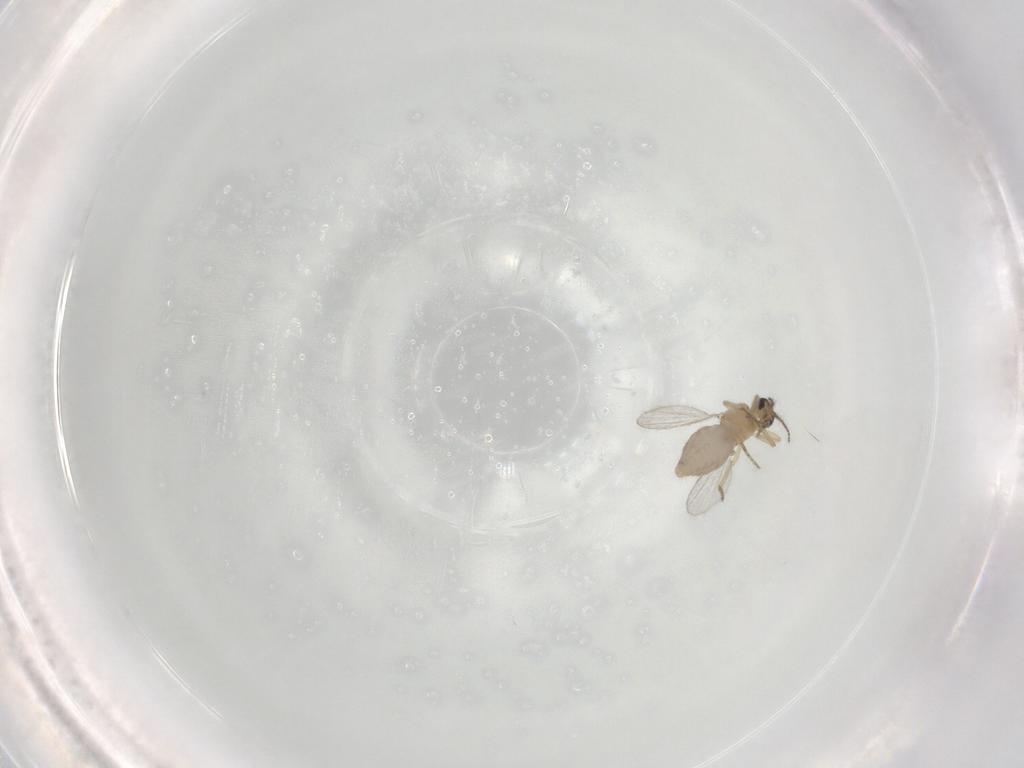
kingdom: Animalia
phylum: Arthropoda
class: Insecta
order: Diptera
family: Ceratopogonidae
